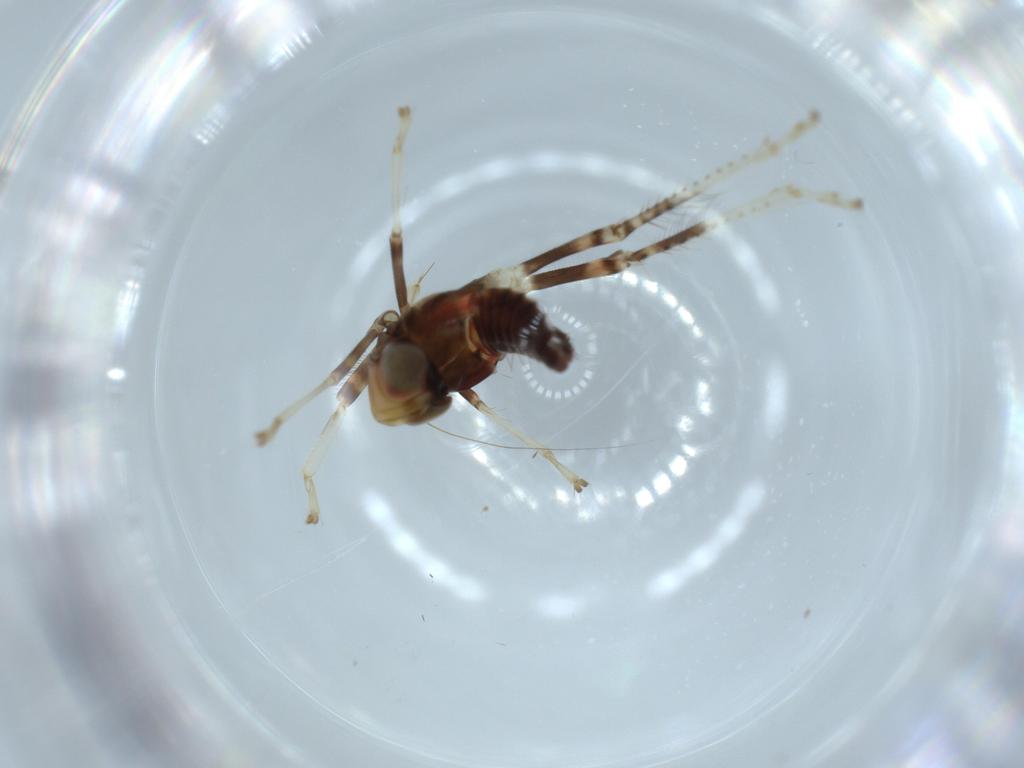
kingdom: Animalia
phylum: Arthropoda
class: Insecta
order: Hemiptera
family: Cicadellidae
